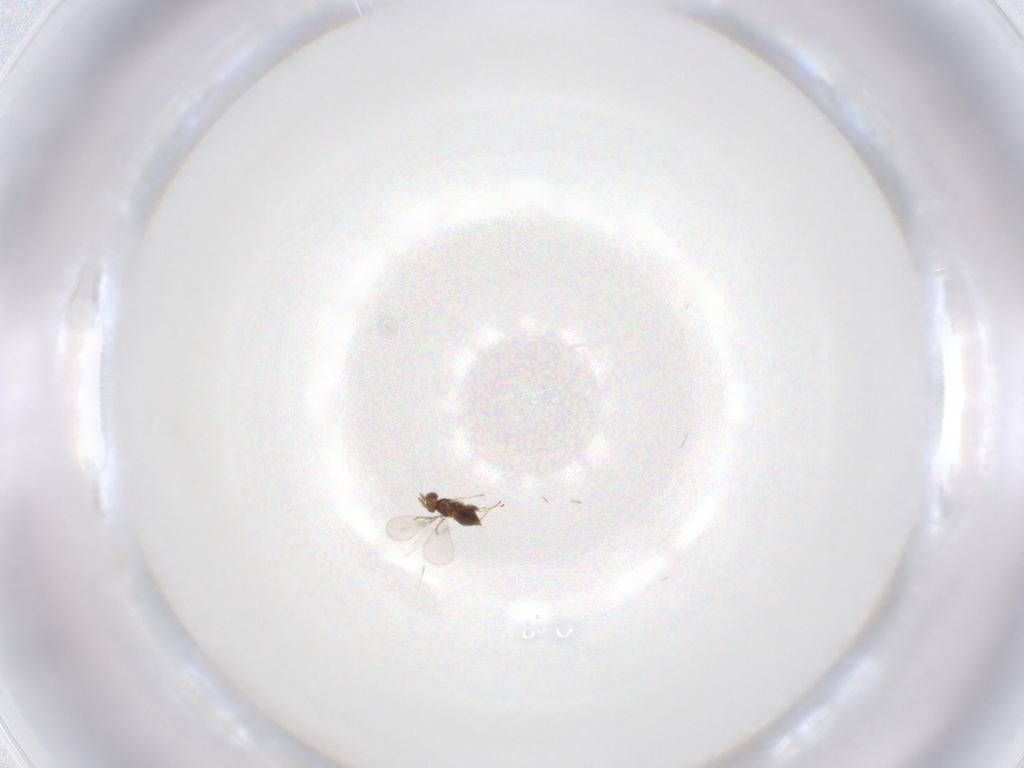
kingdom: Animalia
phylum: Arthropoda
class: Insecta
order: Hymenoptera
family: Trichogrammatidae
